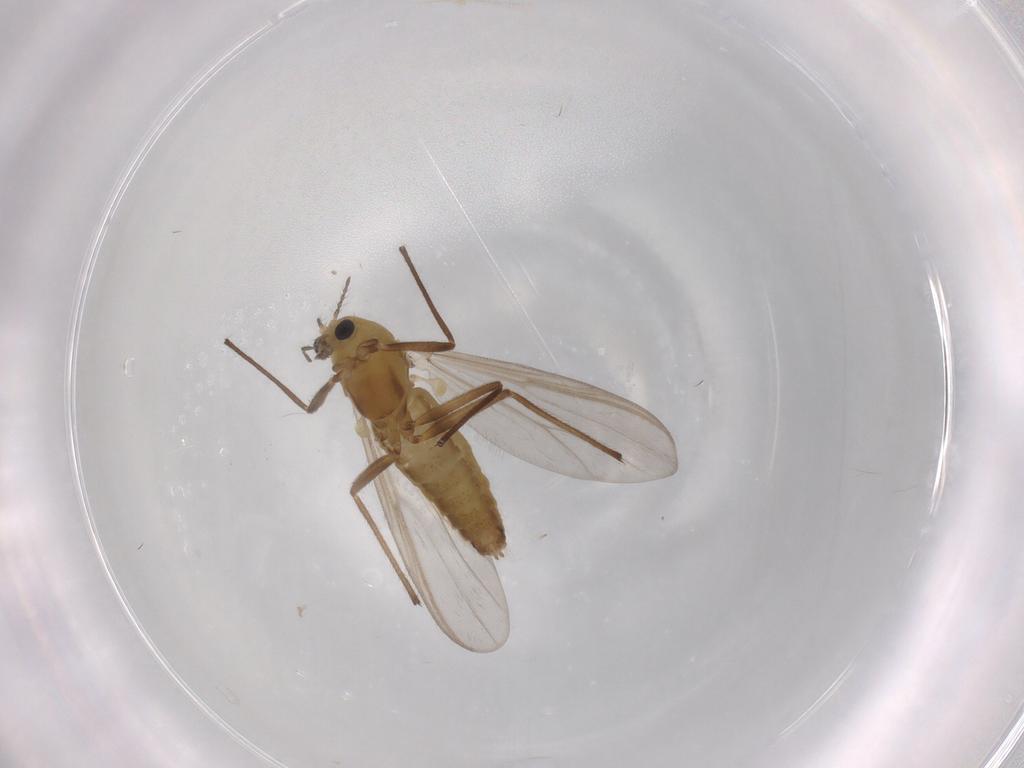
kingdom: Animalia
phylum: Arthropoda
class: Insecta
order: Diptera
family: Chironomidae
